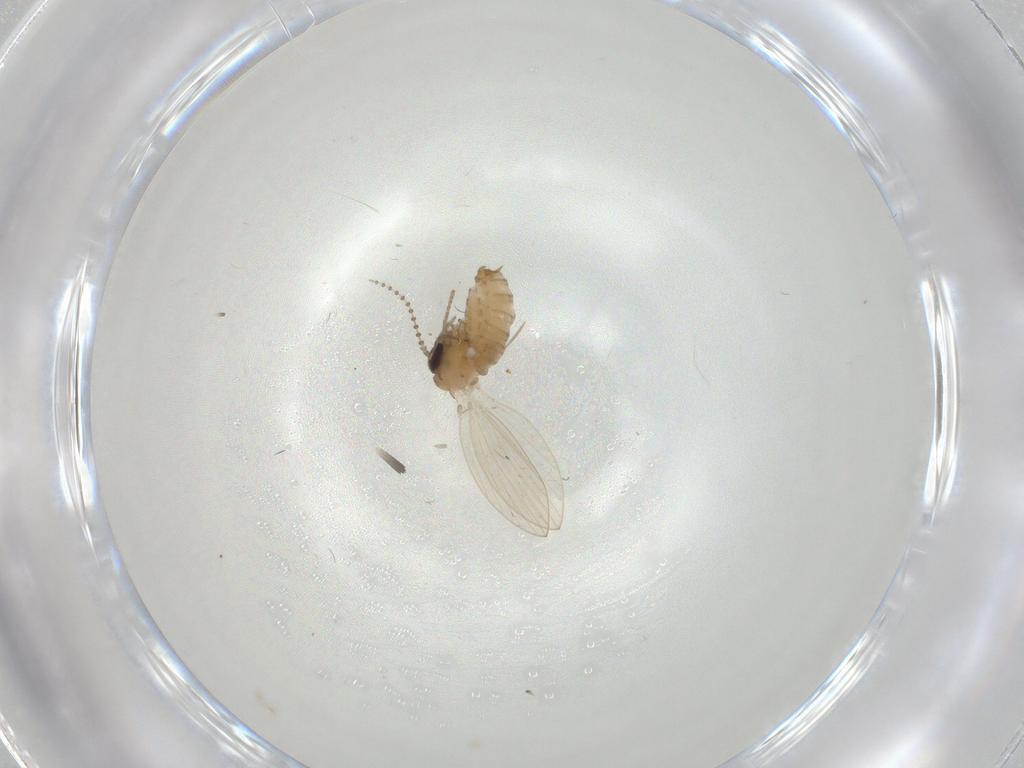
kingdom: Animalia
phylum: Arthropoda
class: Insecta
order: Diptera
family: Psychodidae
